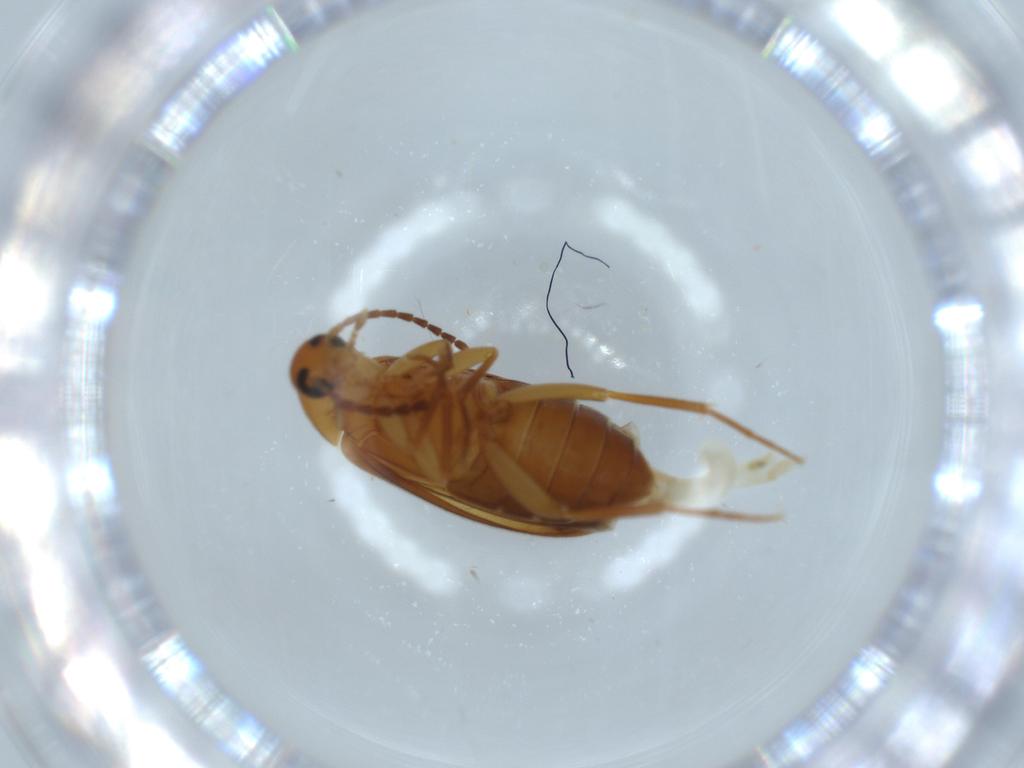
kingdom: Animalia
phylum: Arthropoda
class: Insecta
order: Coleoptera
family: Scraptiidae
